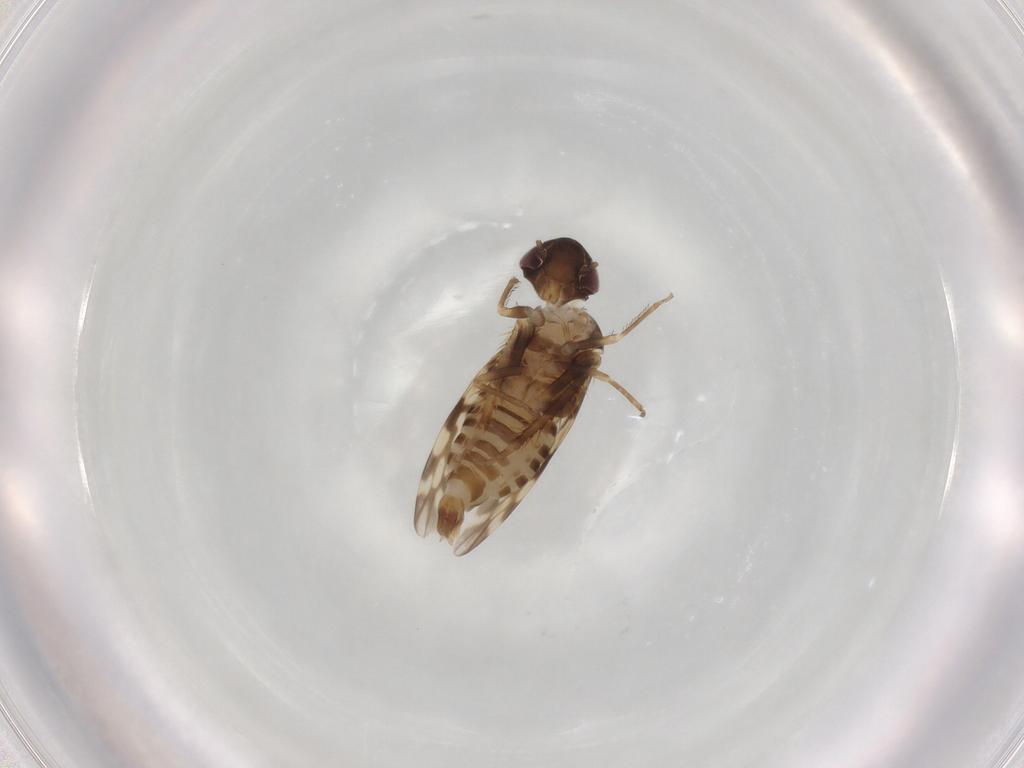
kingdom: Animalia
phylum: Arthropoda
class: Insecta
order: Hemiptera
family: Cicadellidae
